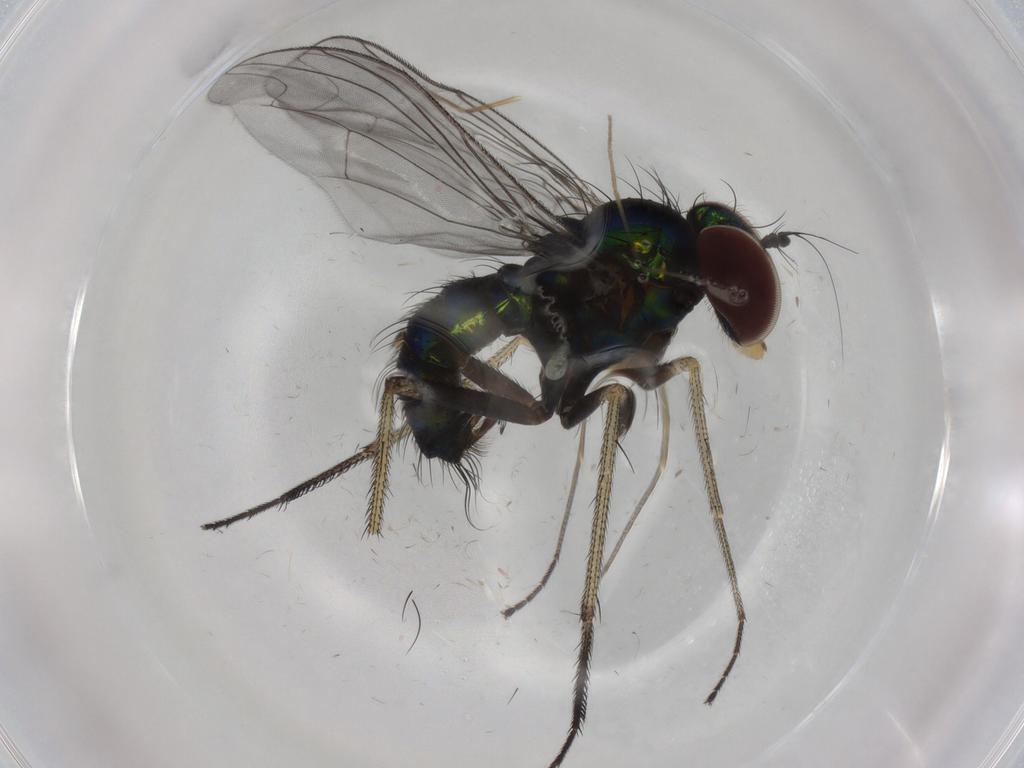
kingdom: Animalia
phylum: Arthropoda
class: Insecta
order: Diptera
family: Dolichopodidae
